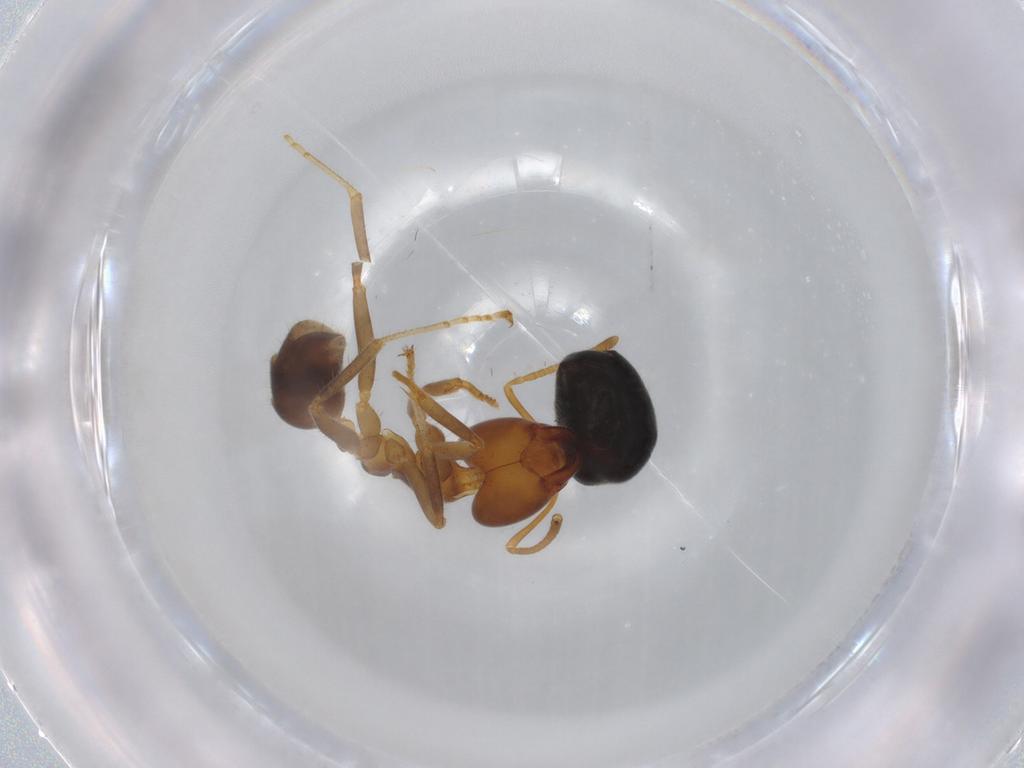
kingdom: Animalia
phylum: Arthropoda
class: Insecta
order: Hymenoptera
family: Formicidae
